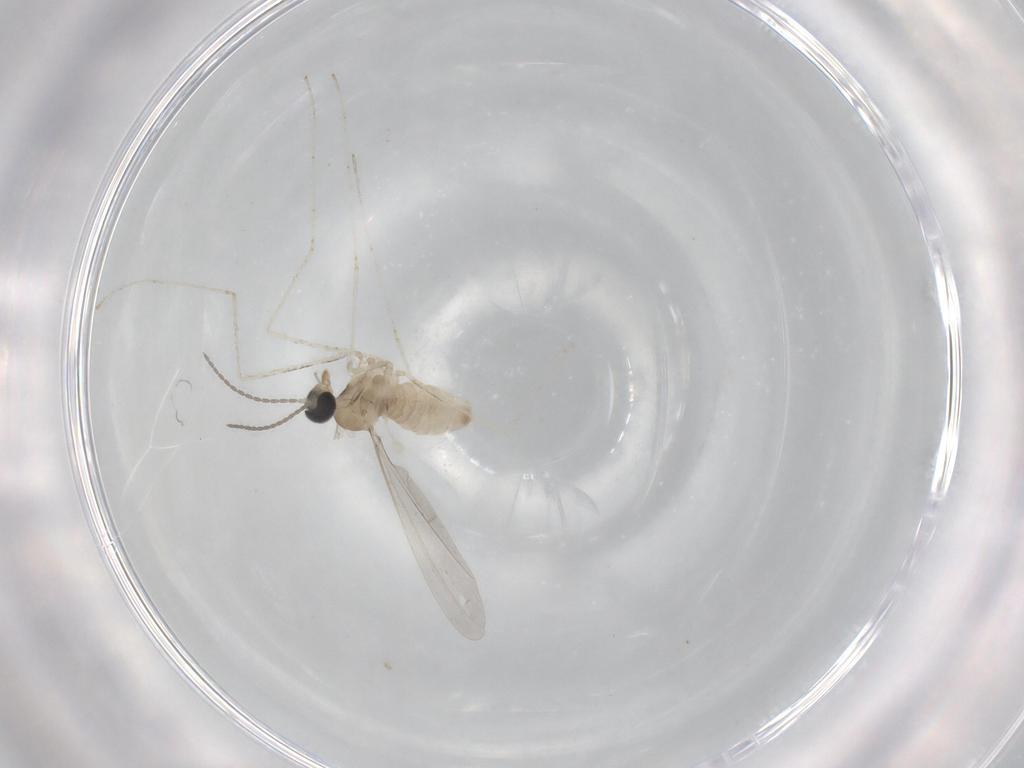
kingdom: Animalia
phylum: Arthropoda
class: Insecta
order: Diptera
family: Cecidomyiidae
